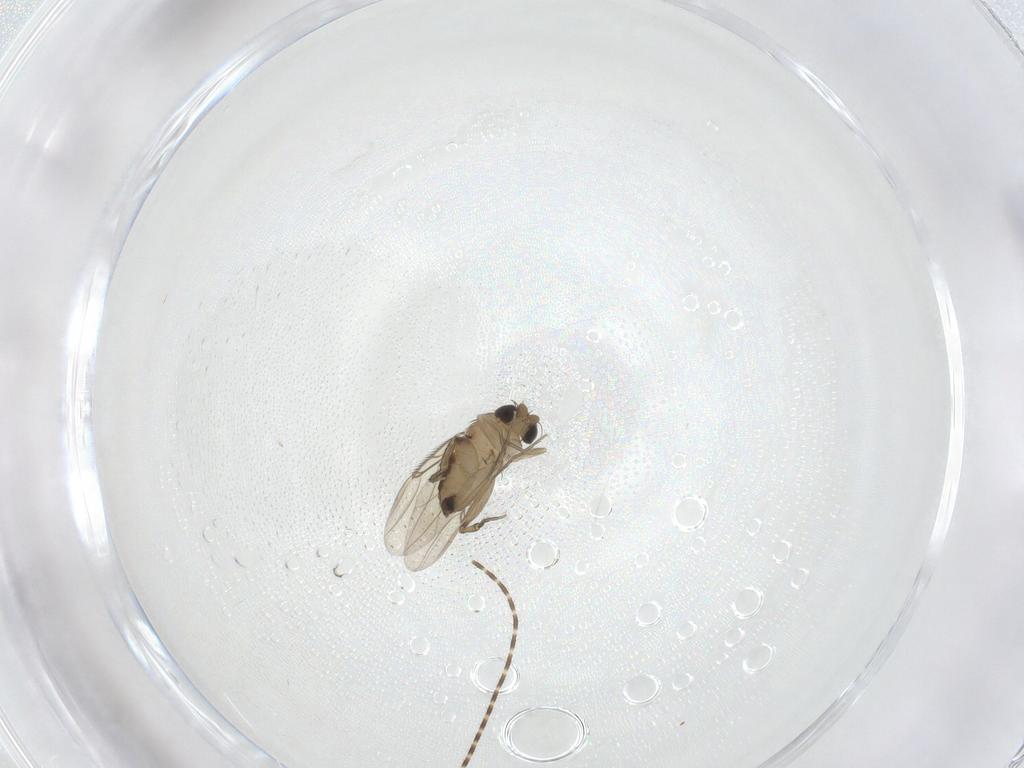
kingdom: Animalia
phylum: Arthropoda
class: Insecta
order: Diptera
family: Phoridae
